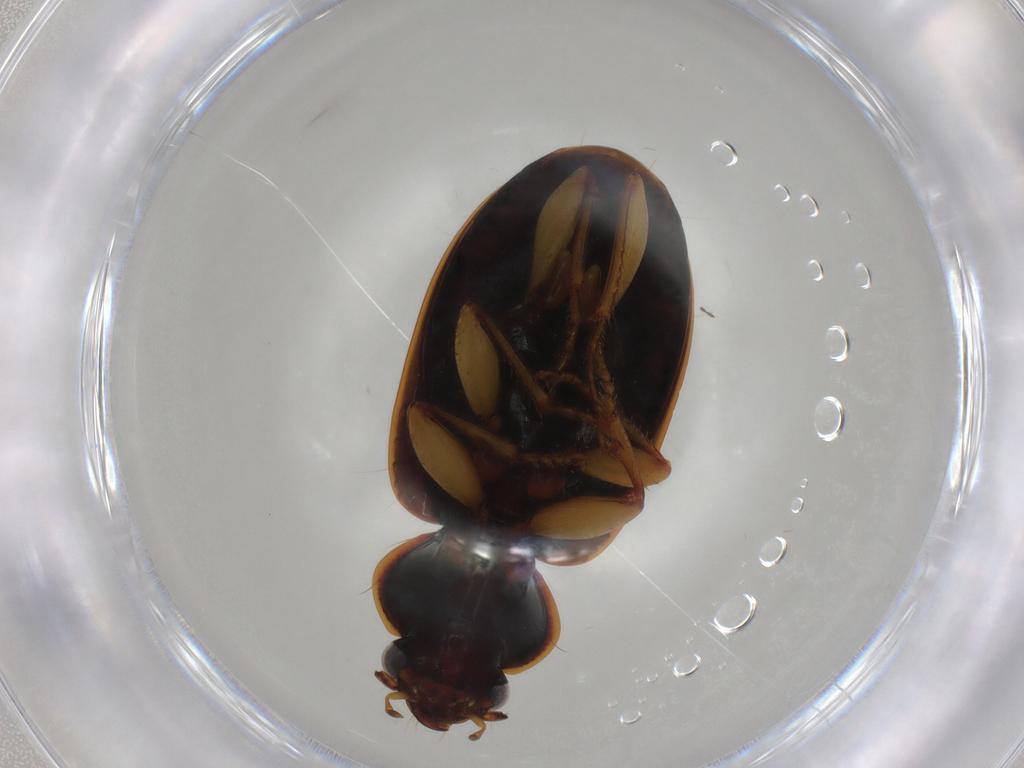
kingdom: Animalia
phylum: Arthropoda
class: Insecta
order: Coleoptera
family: Carabidae
